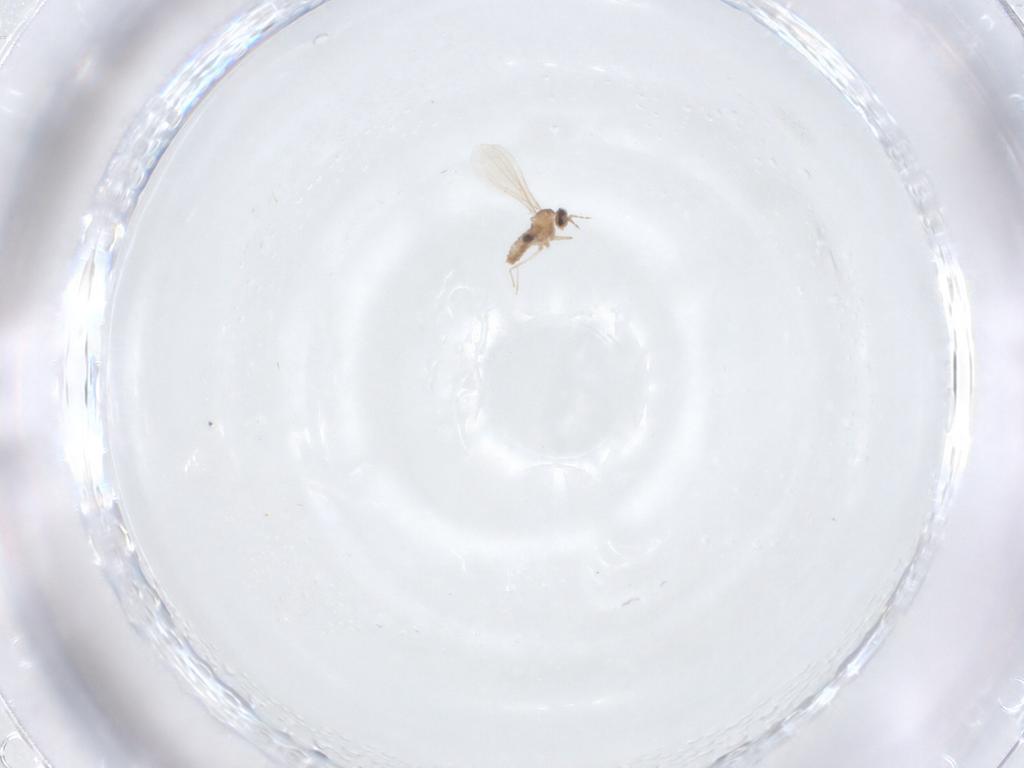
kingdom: Animalia
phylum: Arthropoda
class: Insecta
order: Diptera
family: Cecidomyiidae
